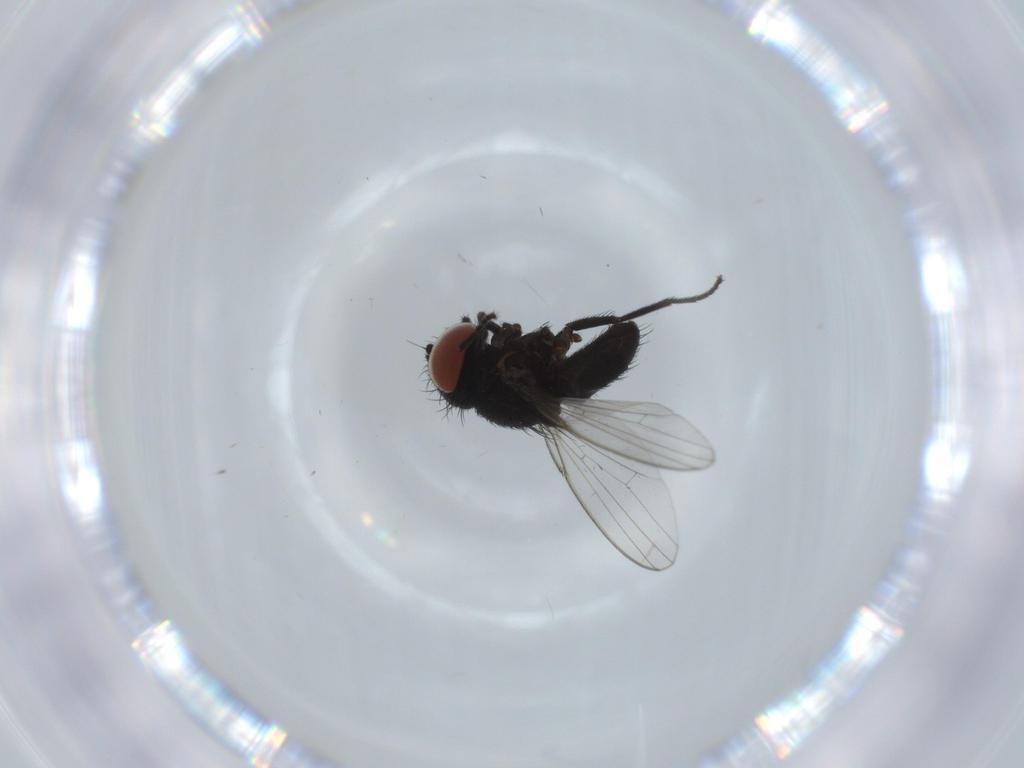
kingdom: Animalia
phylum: Arthropoda
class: Insecta
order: Diptera
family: Milichiidae
